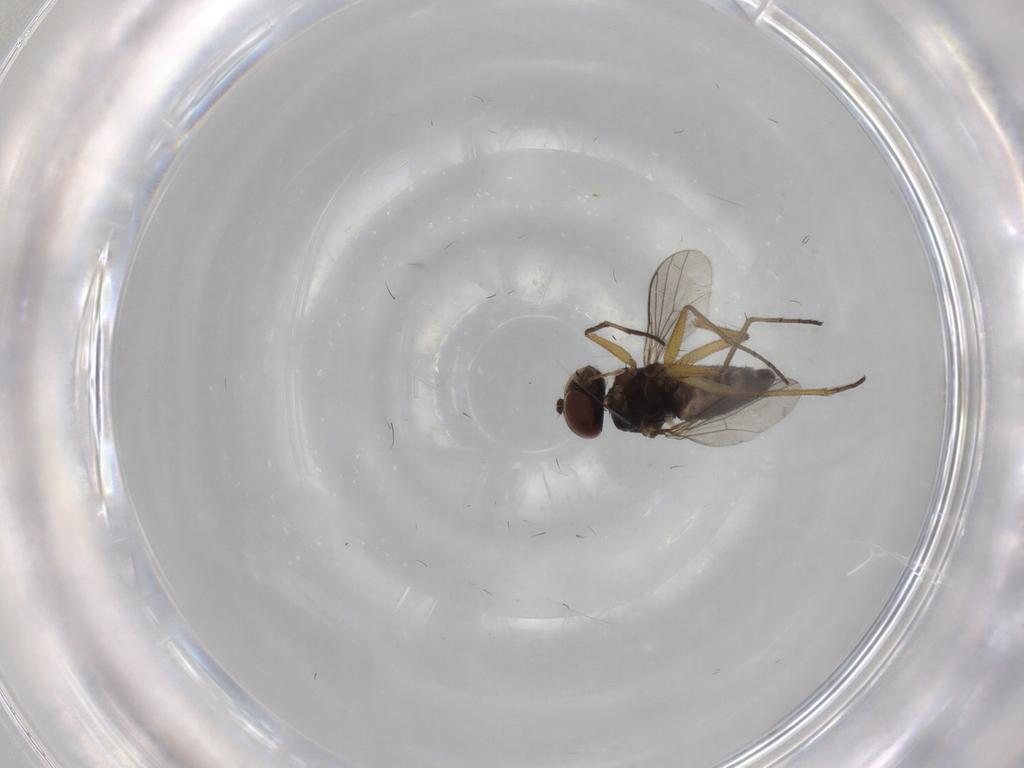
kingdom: Animalia
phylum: Arthropoda
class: Insecta
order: Diptera
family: Dolichopodidae
